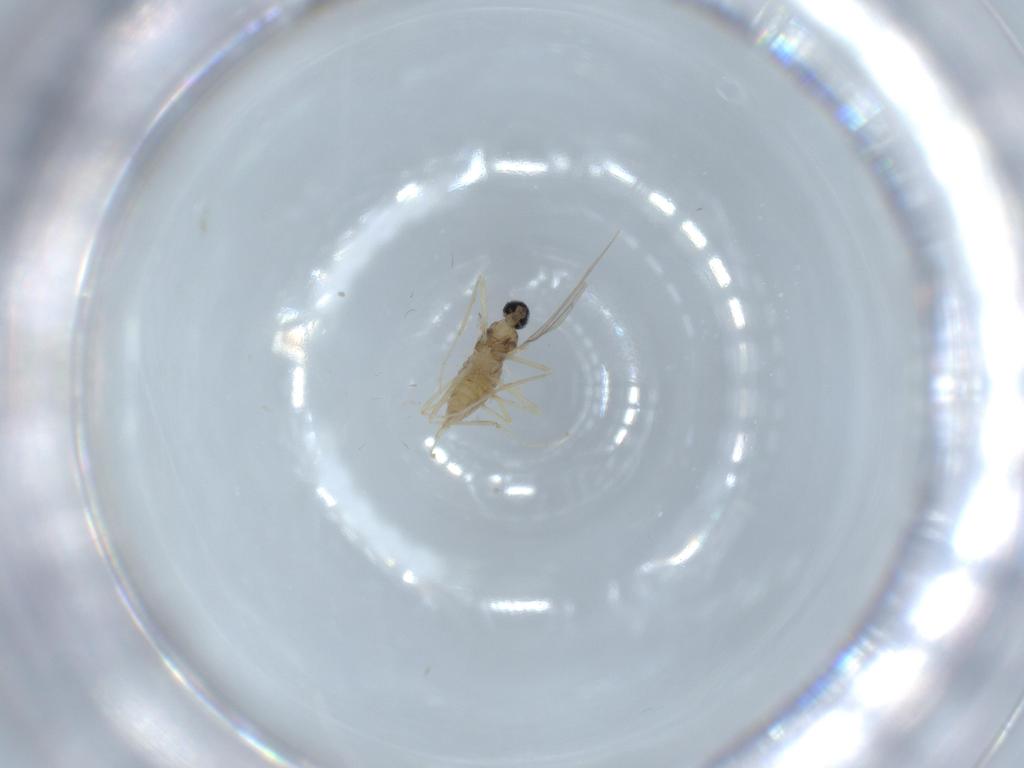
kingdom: Animalia
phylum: Arthropoda
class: Insecta
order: Diptera
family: Cecidomyiidae
